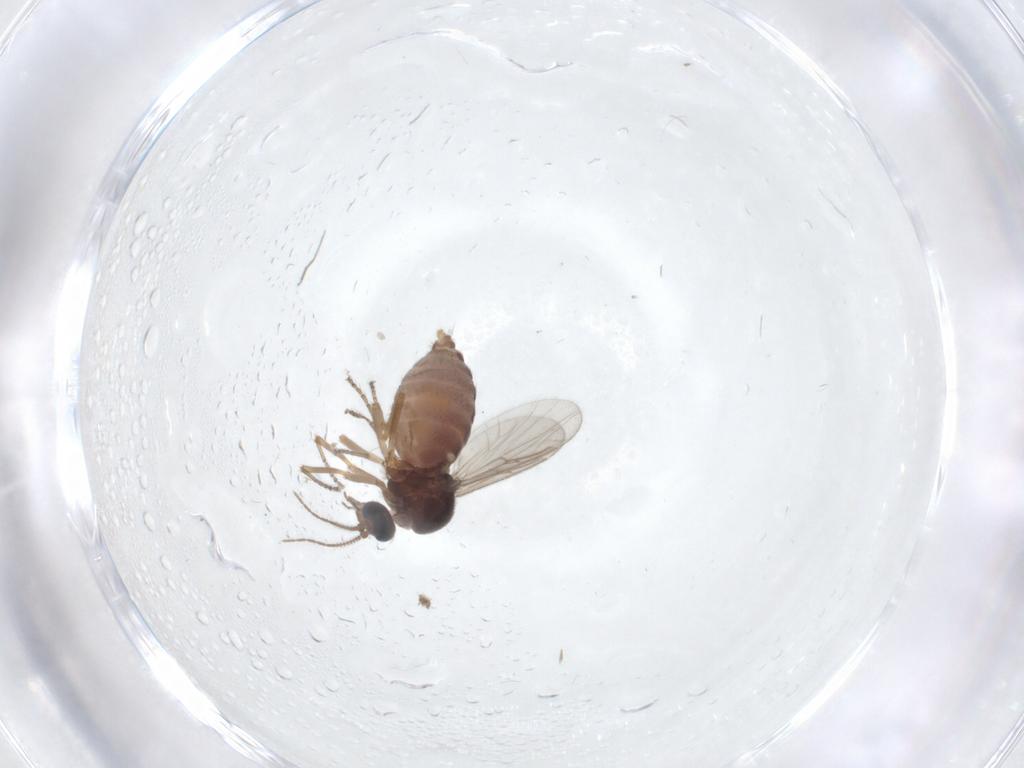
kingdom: Animalia
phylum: Arthropoda
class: Insecta
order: Diptera
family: Ceratopogonidae
